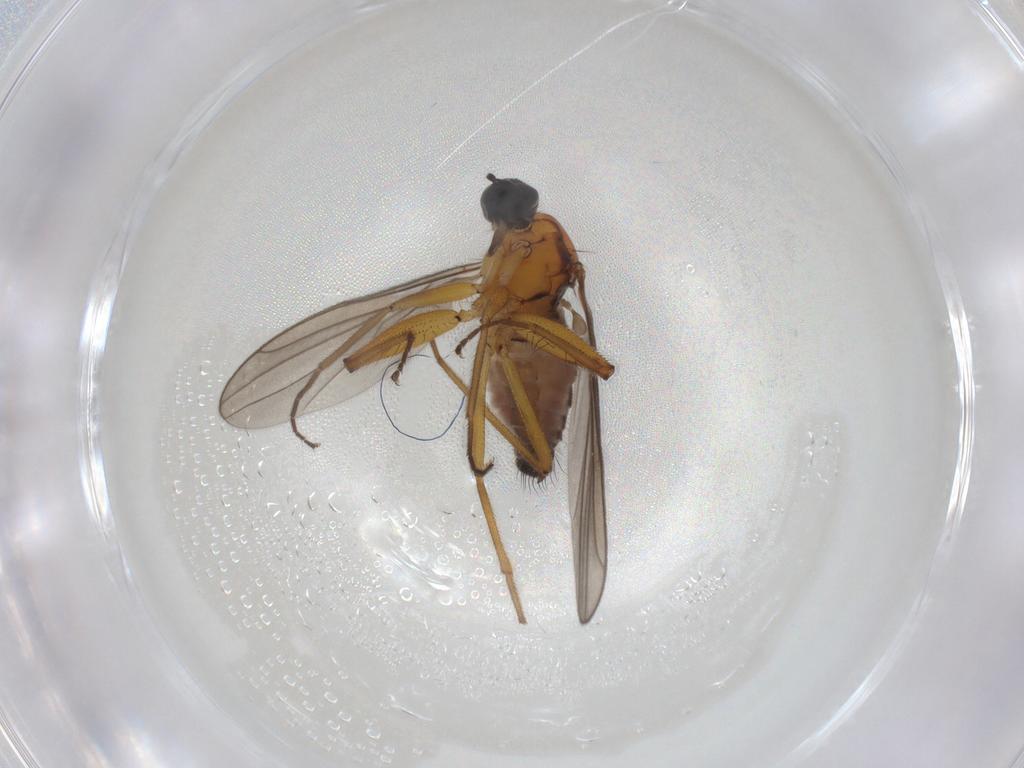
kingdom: Animalia
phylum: Arthropoda
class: Insecta
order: Diptera
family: Hybotidae
